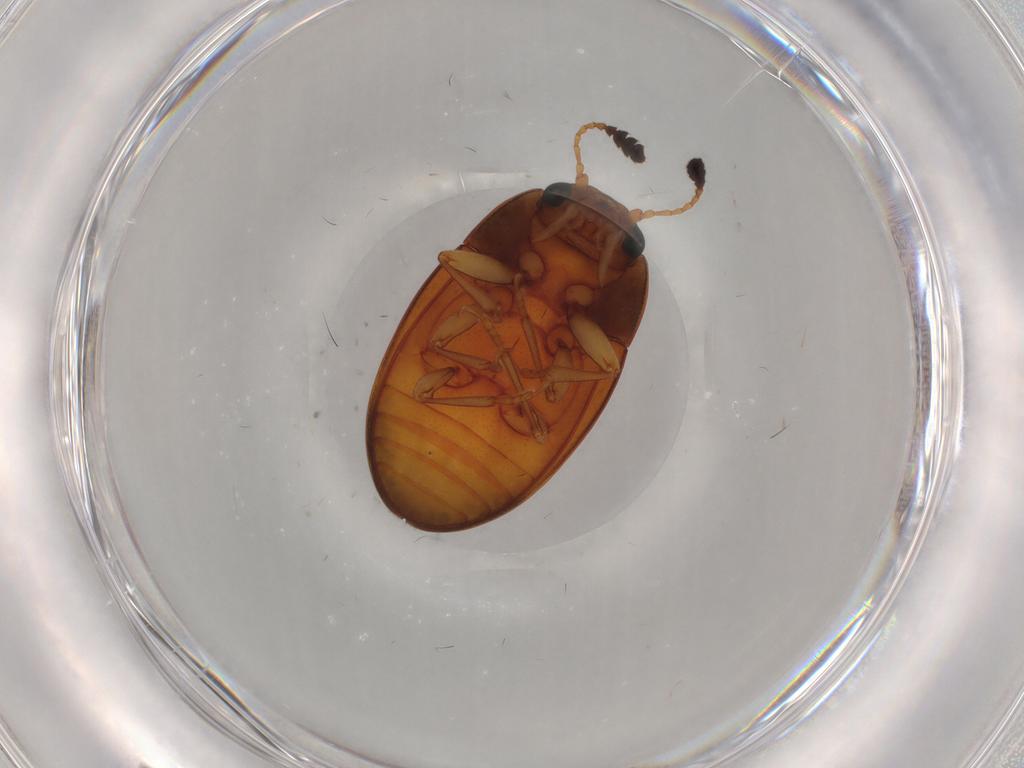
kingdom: Animalia
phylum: Arthropoda
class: Insecta
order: Coleoptera
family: Erotylidae
